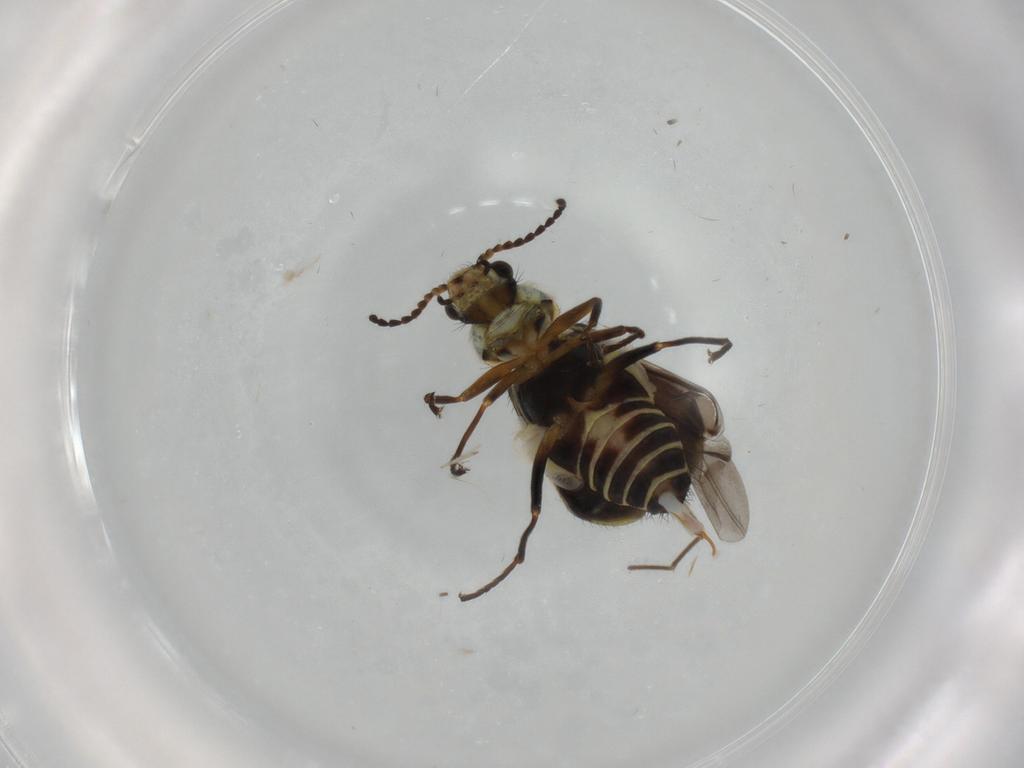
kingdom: Animalia
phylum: Arthropoda
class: Insecta
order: Coleoptera
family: Melyridae
